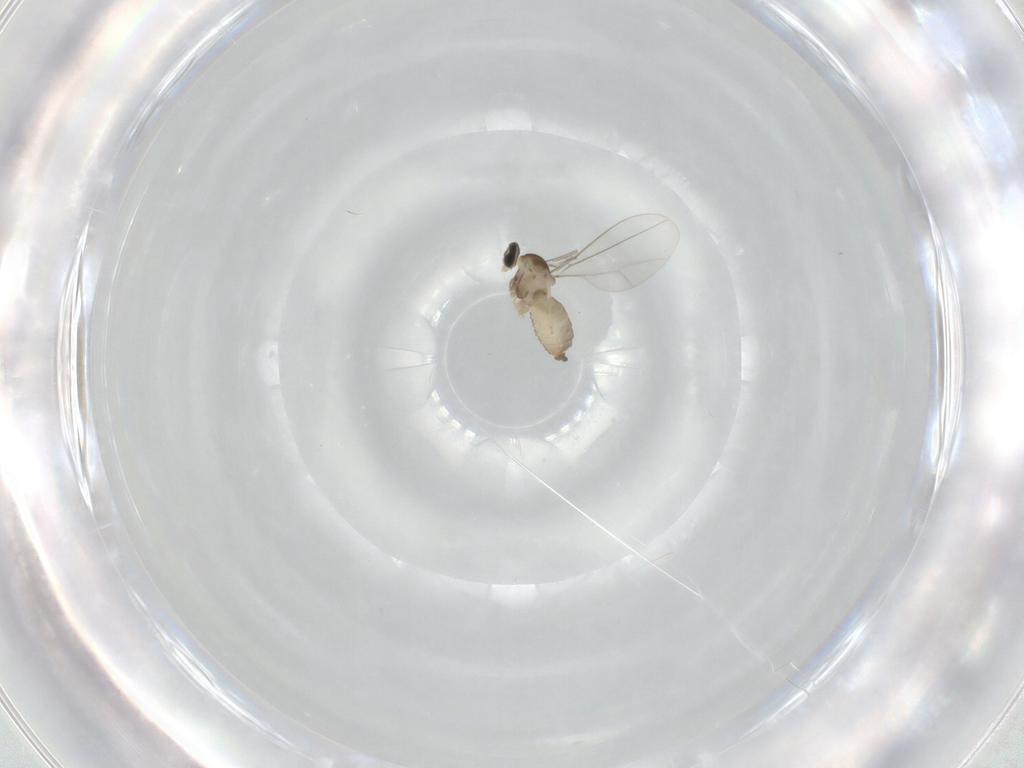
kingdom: Animalia
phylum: Arthropoda
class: Insecta
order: Diptera
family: Cecidomyiidae
